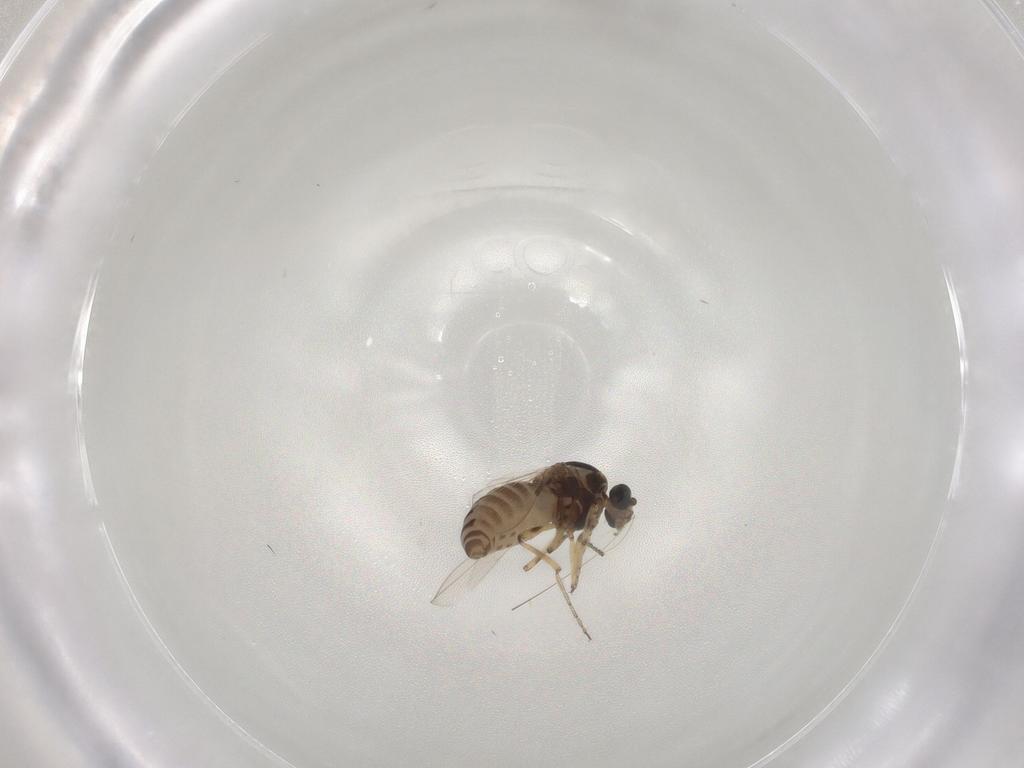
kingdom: Animalia
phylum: Arthropoda
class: Insecta
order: Diptera
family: Ceratopogonidae
